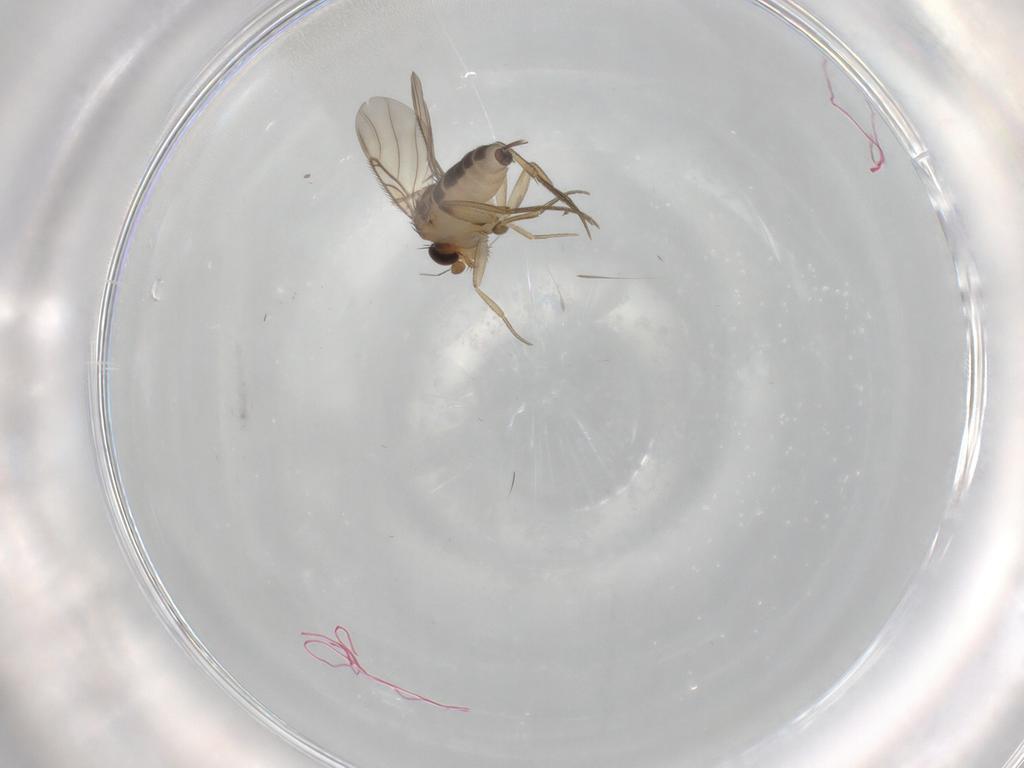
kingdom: Animalia
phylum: Arthropoda
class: Insecta
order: Diptera
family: Phoridae
